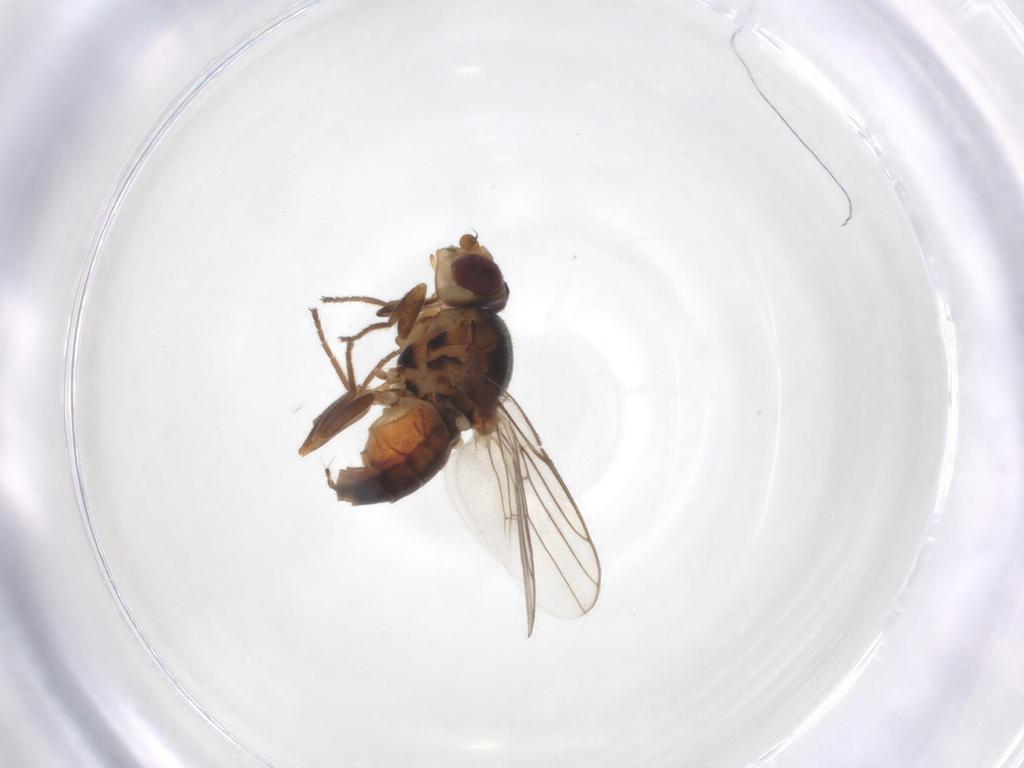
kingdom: Animalia
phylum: Arthropoda
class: Insecta
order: Diptera
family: Chloropidae
